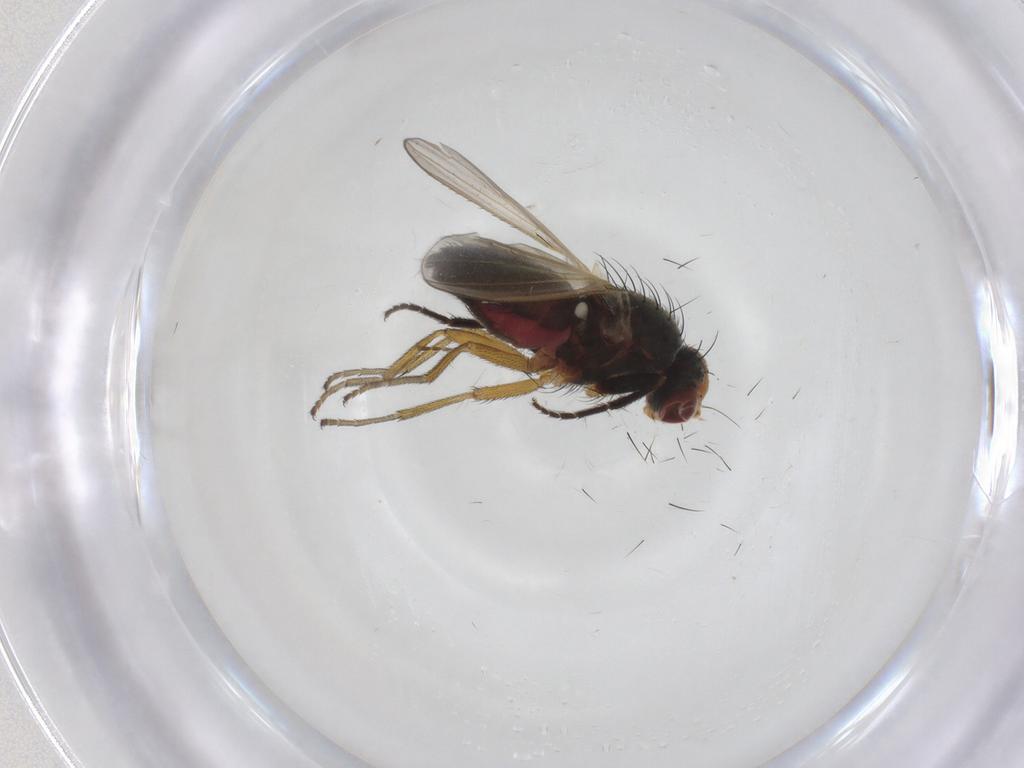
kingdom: Animalia
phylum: Arthropoda
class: Insecta
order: Diptera
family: Heleomyzidae
